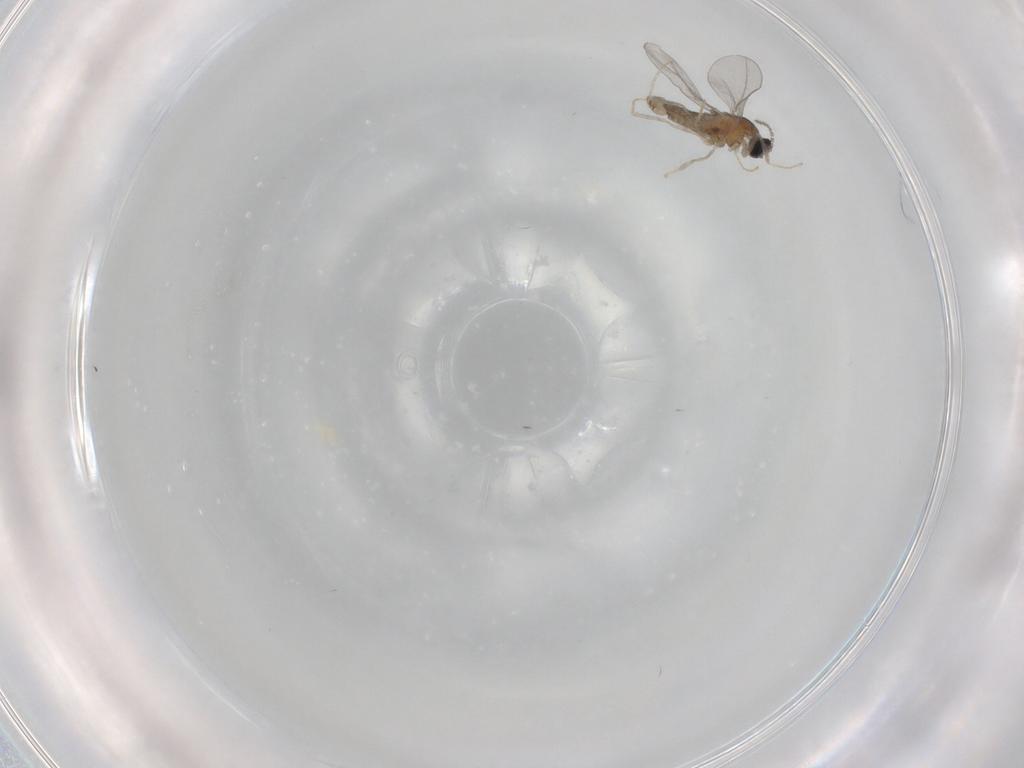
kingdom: Animalia
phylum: Arthropoda
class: Insecta
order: Diptera
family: Cecidomyiidae
